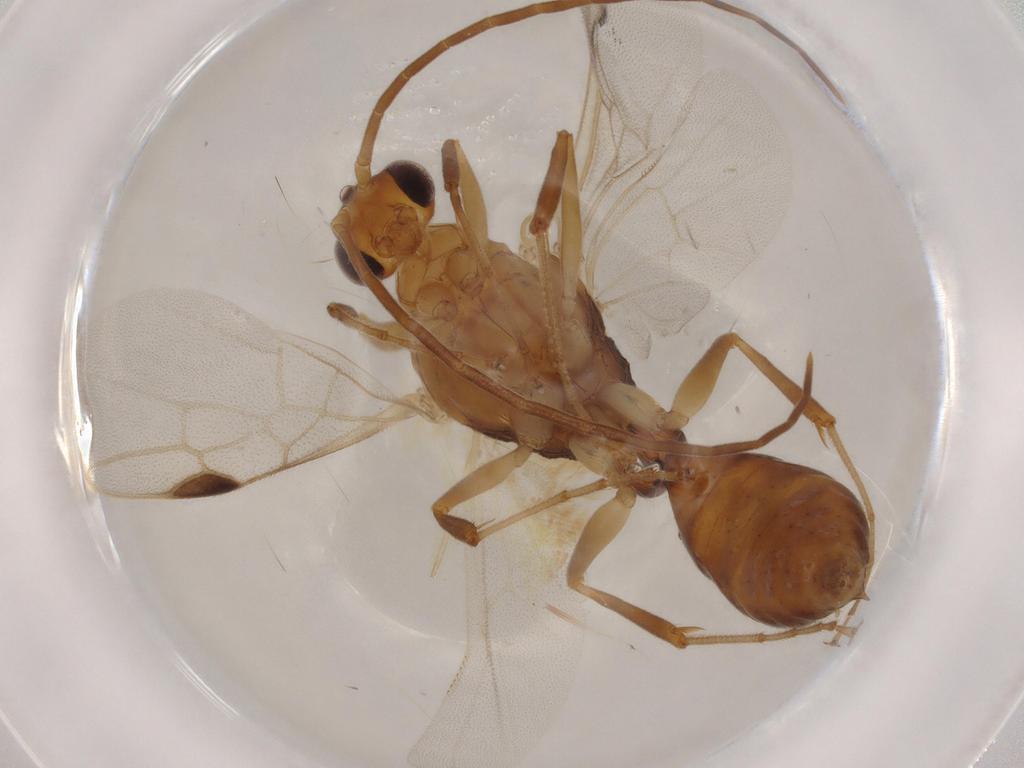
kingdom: Animalia
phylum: Arthropoda
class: Insecta
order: Hymenoptera
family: Formicidae
